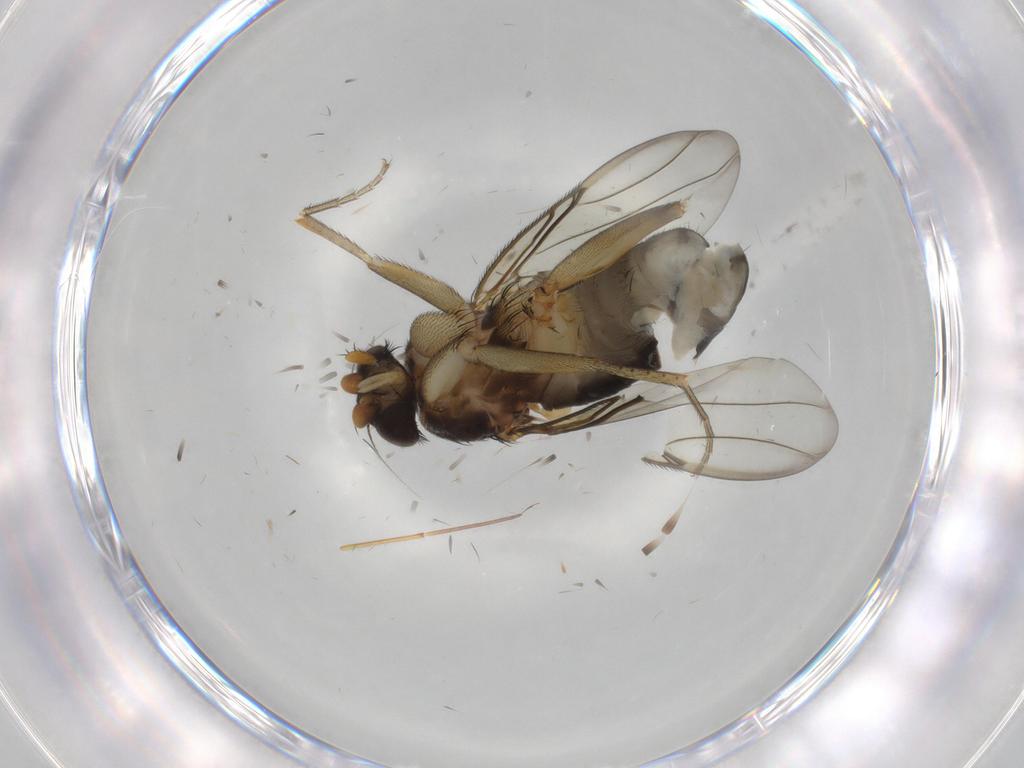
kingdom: Animalia
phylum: Arthropoda
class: Insecta
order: Diptera
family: Phoridae
